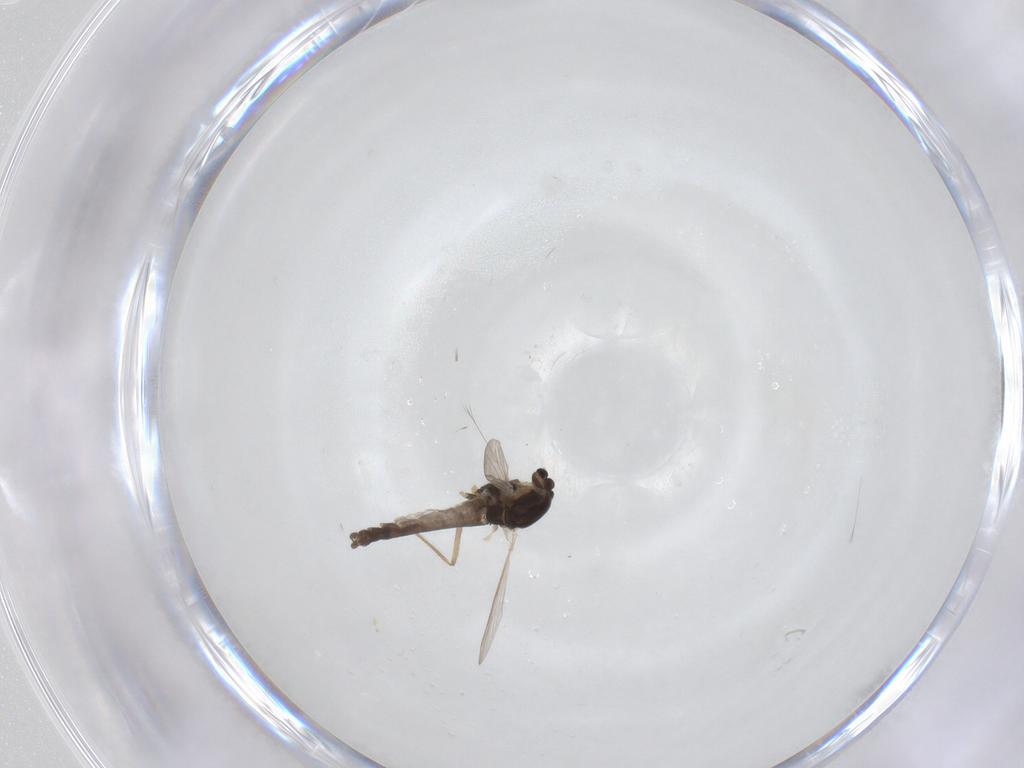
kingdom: Animalia
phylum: Arthropoda
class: Insecta
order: Diptera
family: Chironomidae
